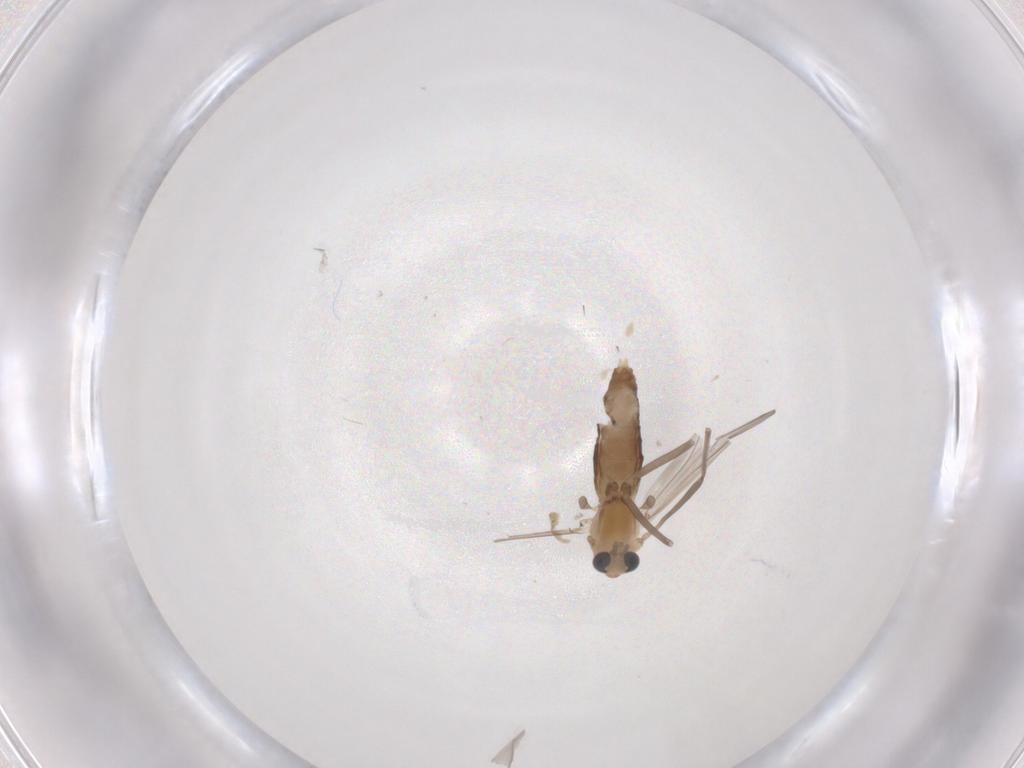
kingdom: Animalia
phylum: Arthropoda
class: Insecta
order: Diptera
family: Chironomidae
